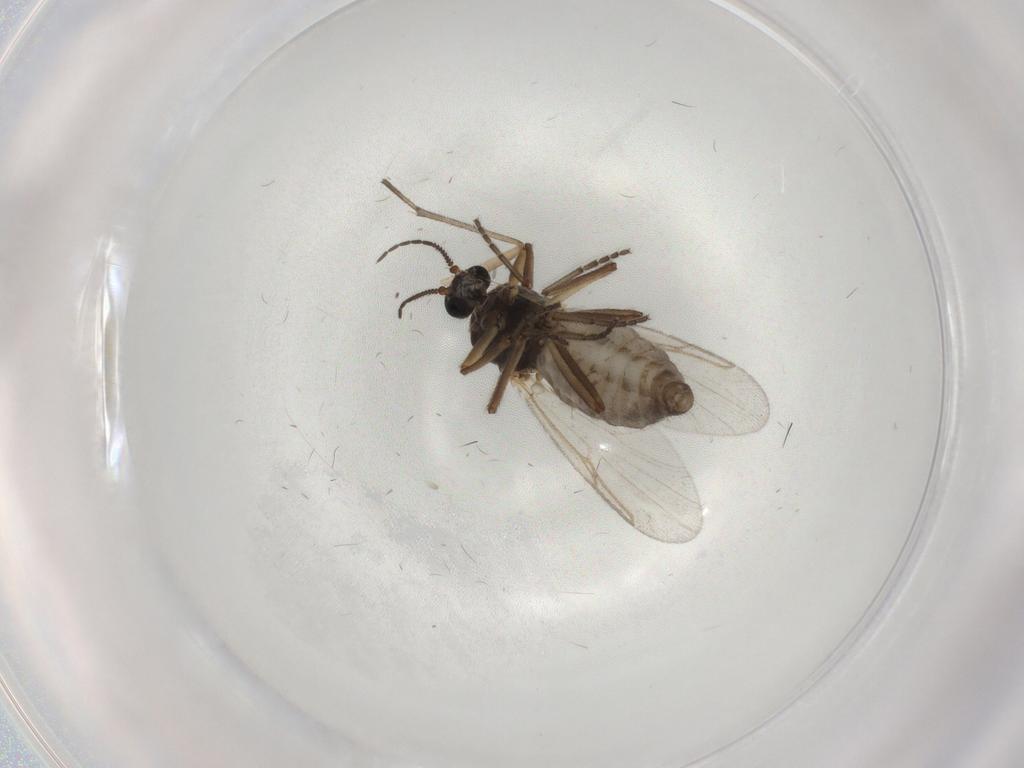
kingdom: Animalia
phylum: Arthropoda
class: Insecta
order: Diptera
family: Ceratopogonidae
